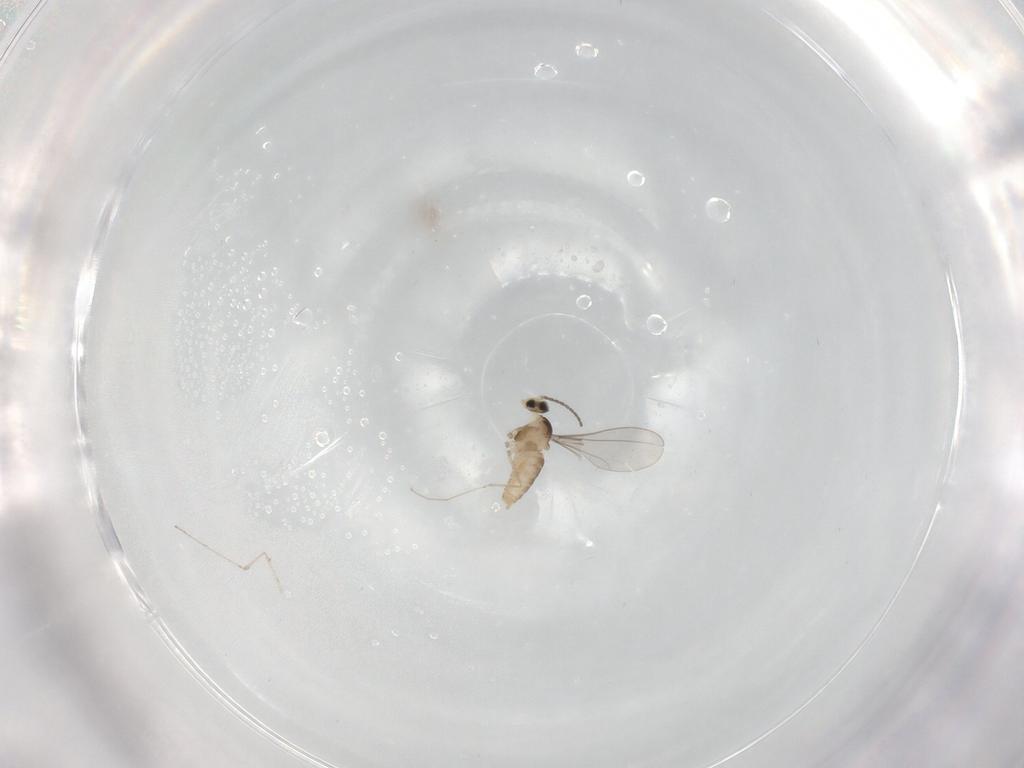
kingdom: Animalia
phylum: Arthropoda
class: Insecta
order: Diptera
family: Cecidomyiidae
